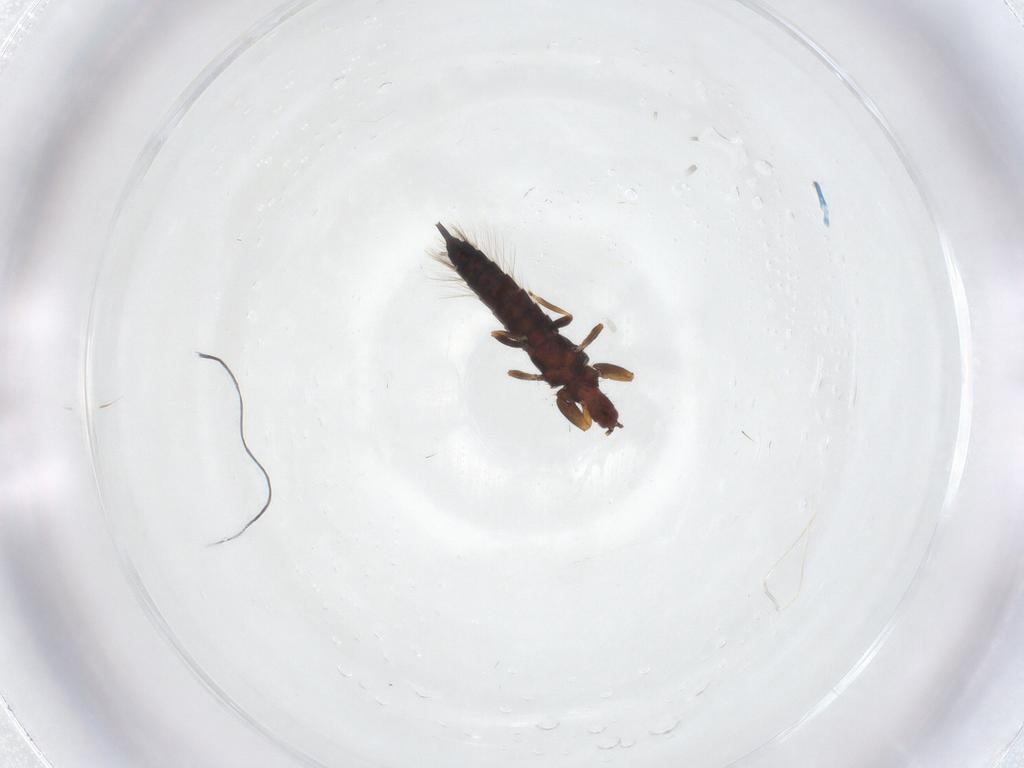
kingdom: Animalia
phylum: Arthropoda
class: Insecta
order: Thysanoptera
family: Phlaeothripidae
